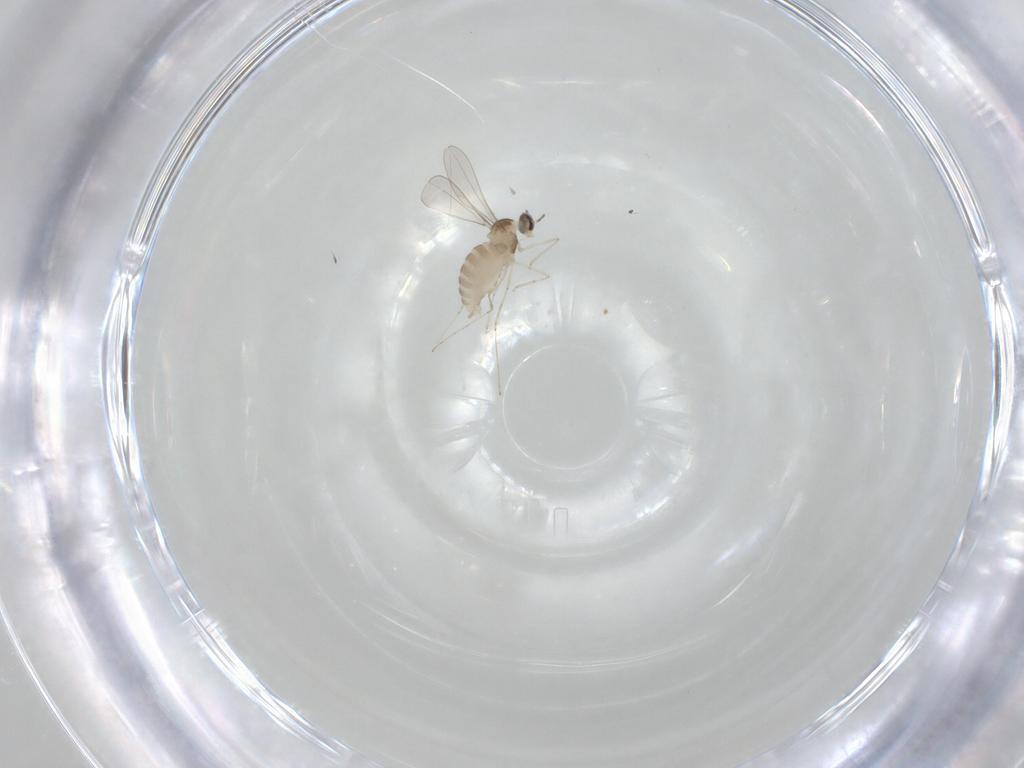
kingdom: Animalia
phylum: Arthropoda
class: Insecta
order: Diptera
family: Cecidomyiidae
